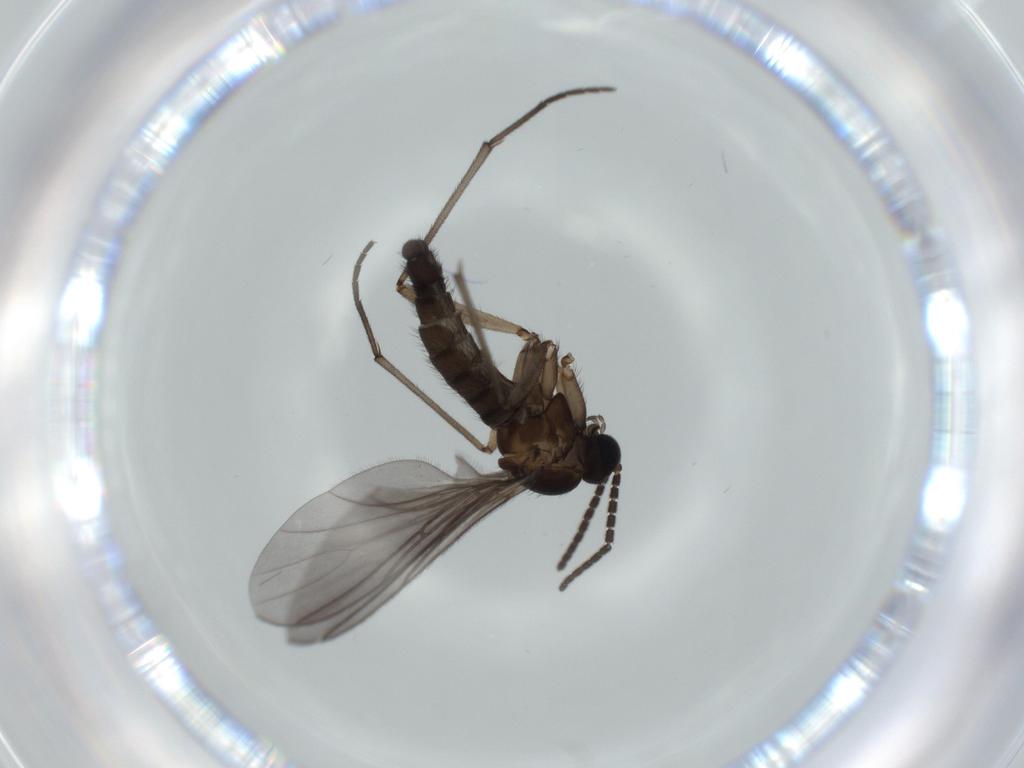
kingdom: Animalia
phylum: Arthropoda
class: Insecta
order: Diptera
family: Sciaridae
